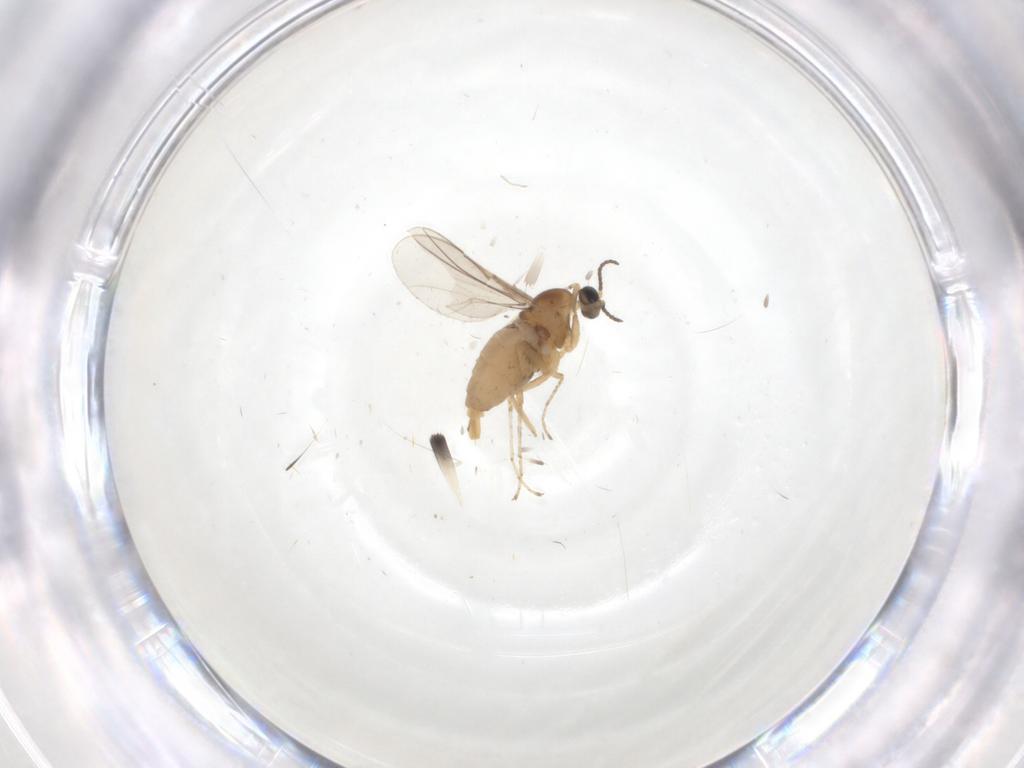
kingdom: Animalia
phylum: Arthropoda
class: Insecta
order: Diptera
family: Cecidomyiidae
